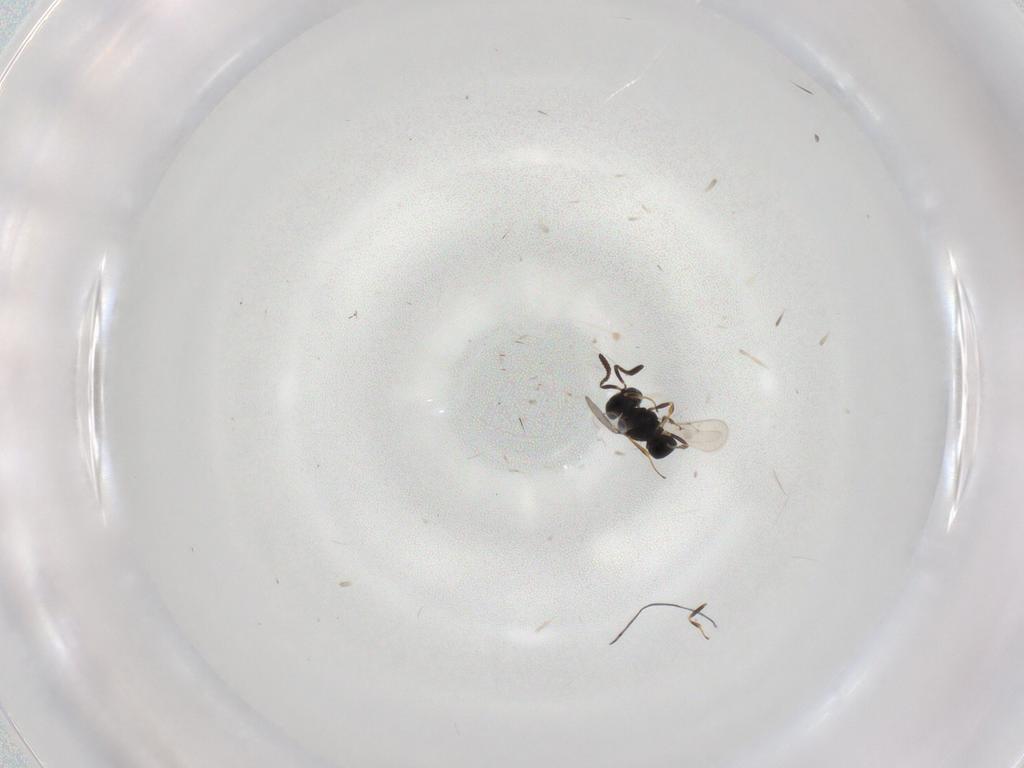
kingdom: Animalia
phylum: Arthropoda
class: Insecta
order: Hymenoptera
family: Scelionidae
